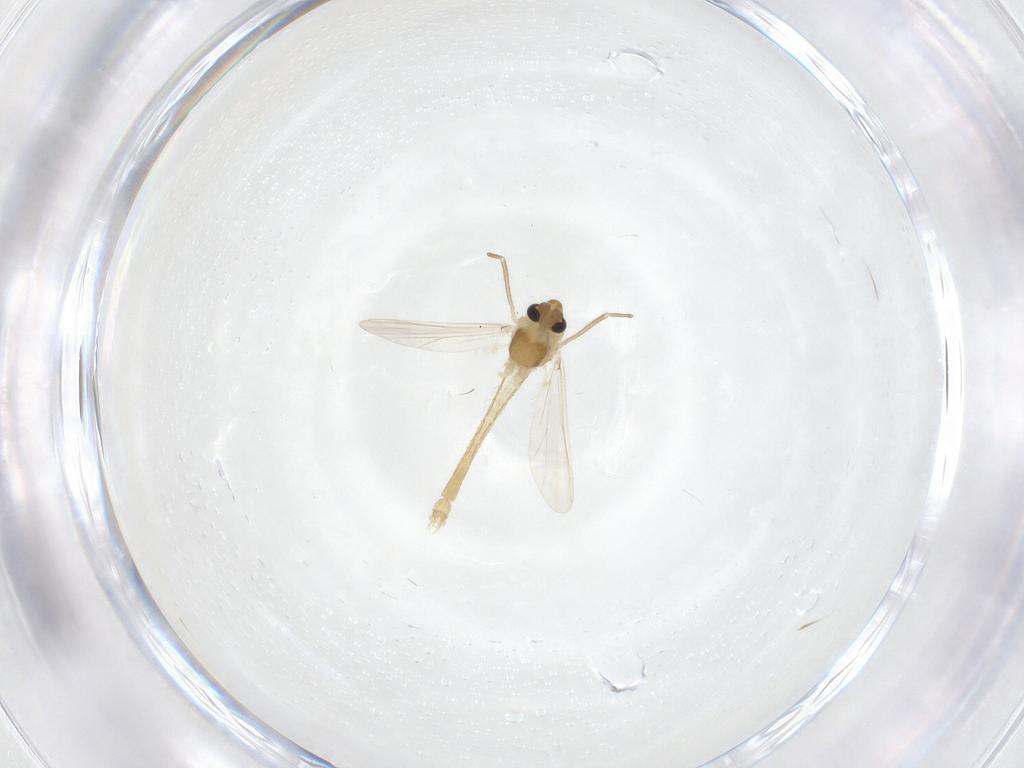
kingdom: Animalia
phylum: Arthropoda
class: Insecta
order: Diptera
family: Chironomidae
